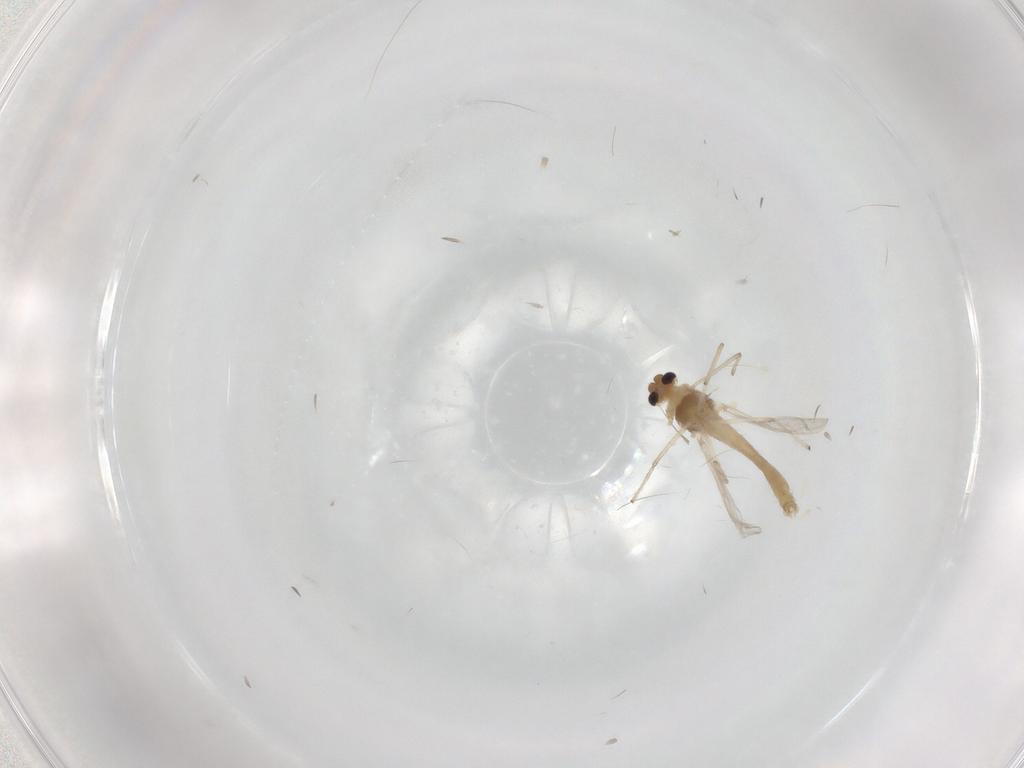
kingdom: Animalia
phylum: Arthropoda
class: Insecta
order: Diptera
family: Chironomidae
